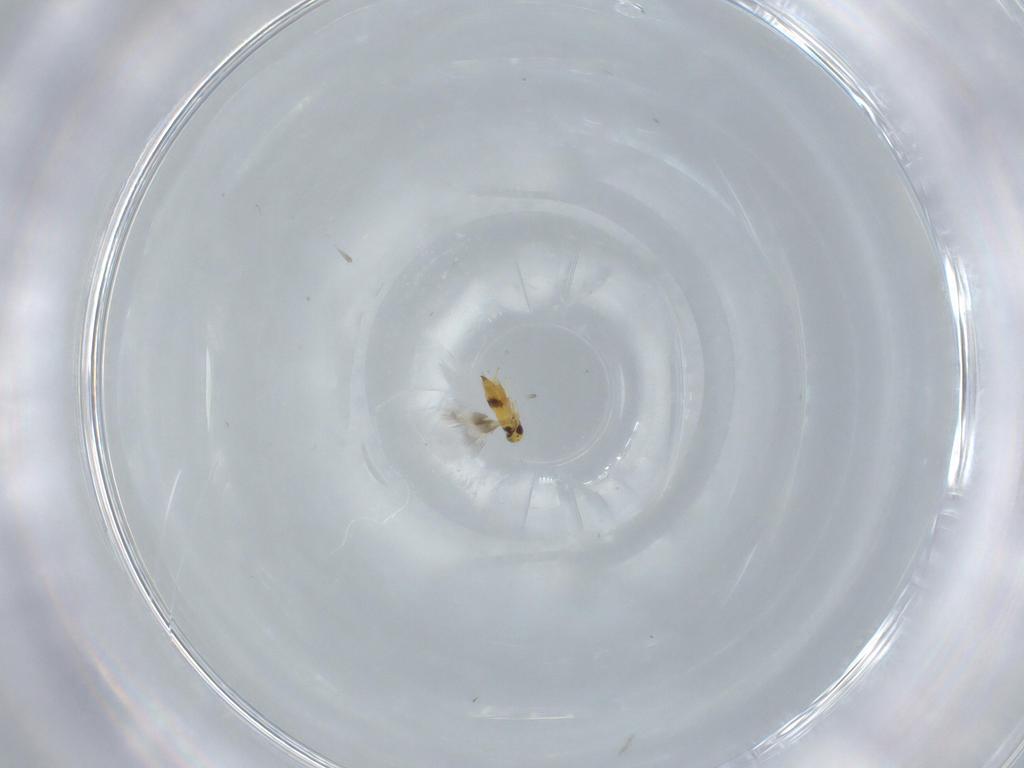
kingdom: Animalia
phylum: Arthropoda
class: Insecta
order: Hymenoptera
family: Signiphoridae
